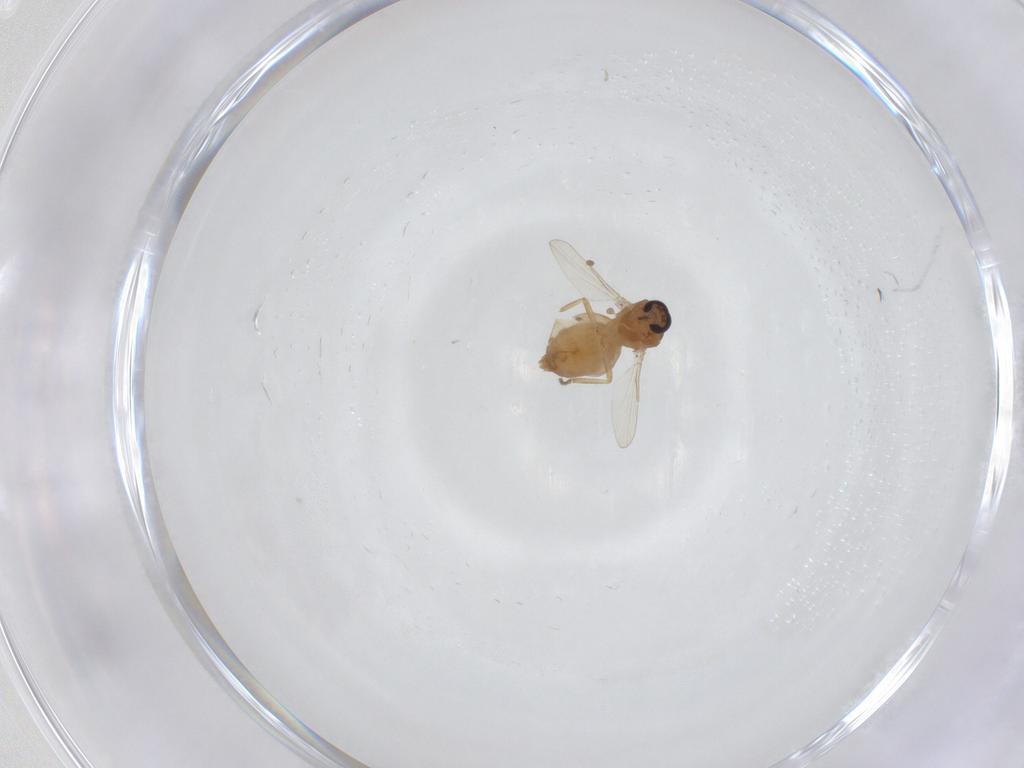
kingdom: Animalia
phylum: Arthropoda
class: Insecta
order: Diptera
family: Ceratopogonidae
